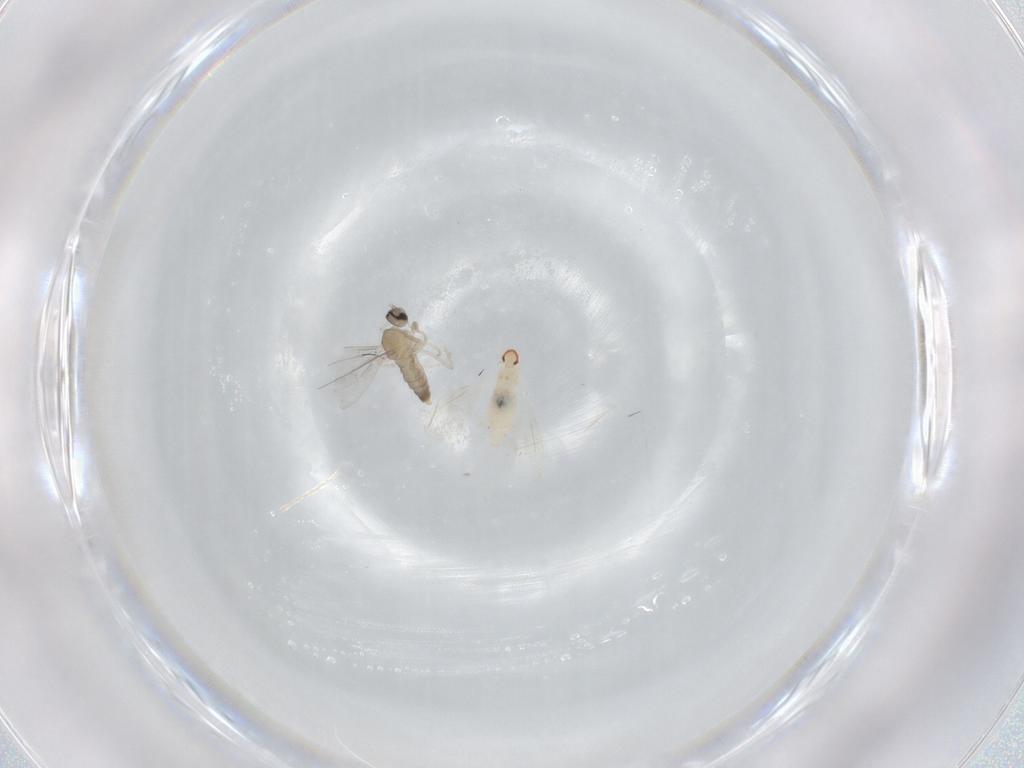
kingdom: Animalia
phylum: Arthropoda
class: Insecta
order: Diptera
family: Cecidomyiidae
